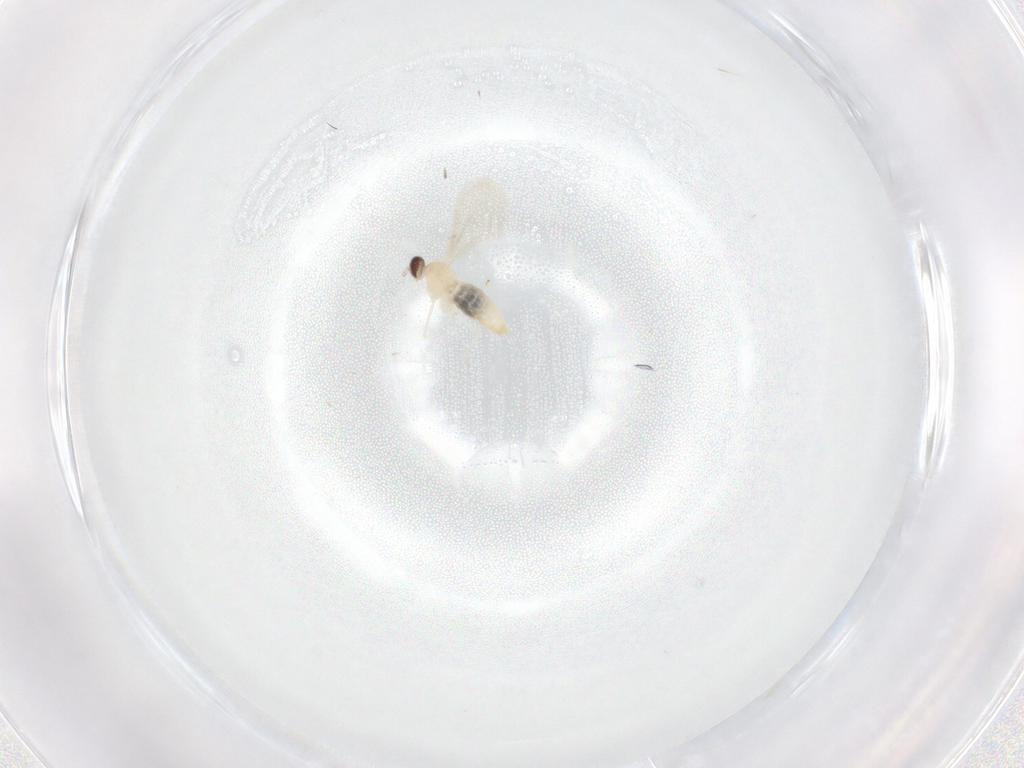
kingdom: Animalia
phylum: Arthropoda
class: Insecta
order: Diptera
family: Chironomidae
